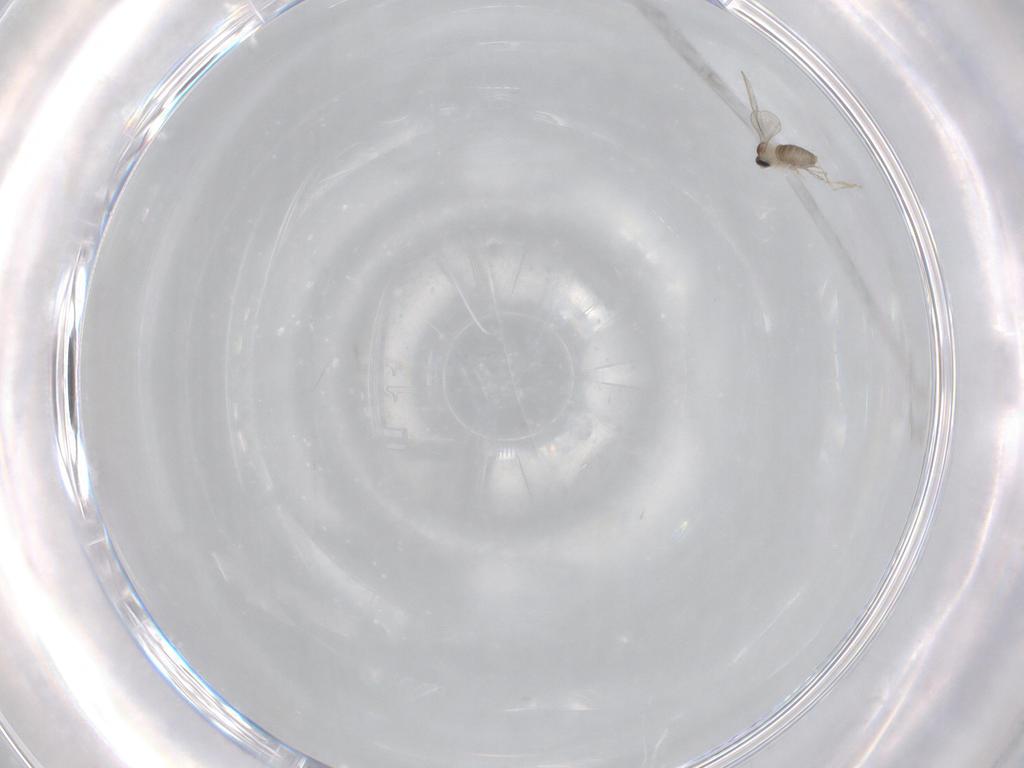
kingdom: Animalia
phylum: Arthropoda
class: Insecta
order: Diptera
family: Cecidomyiidae
